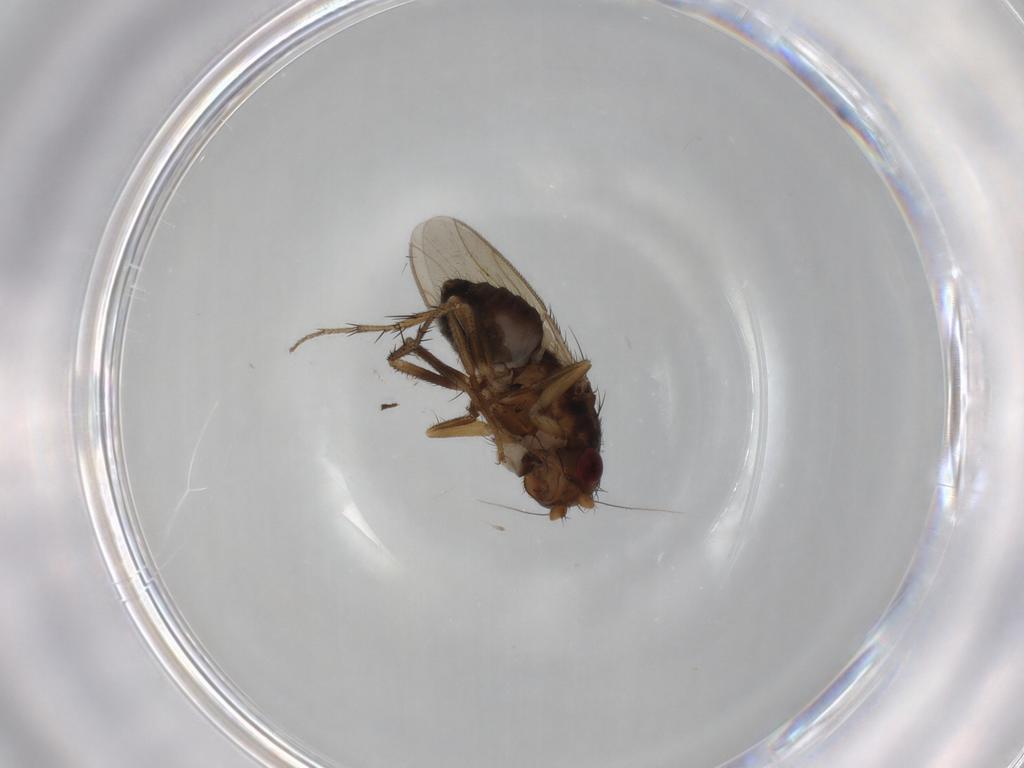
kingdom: Animalia
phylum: Arthropoda
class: Insecta
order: Diptera
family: Sphaeroceridae
